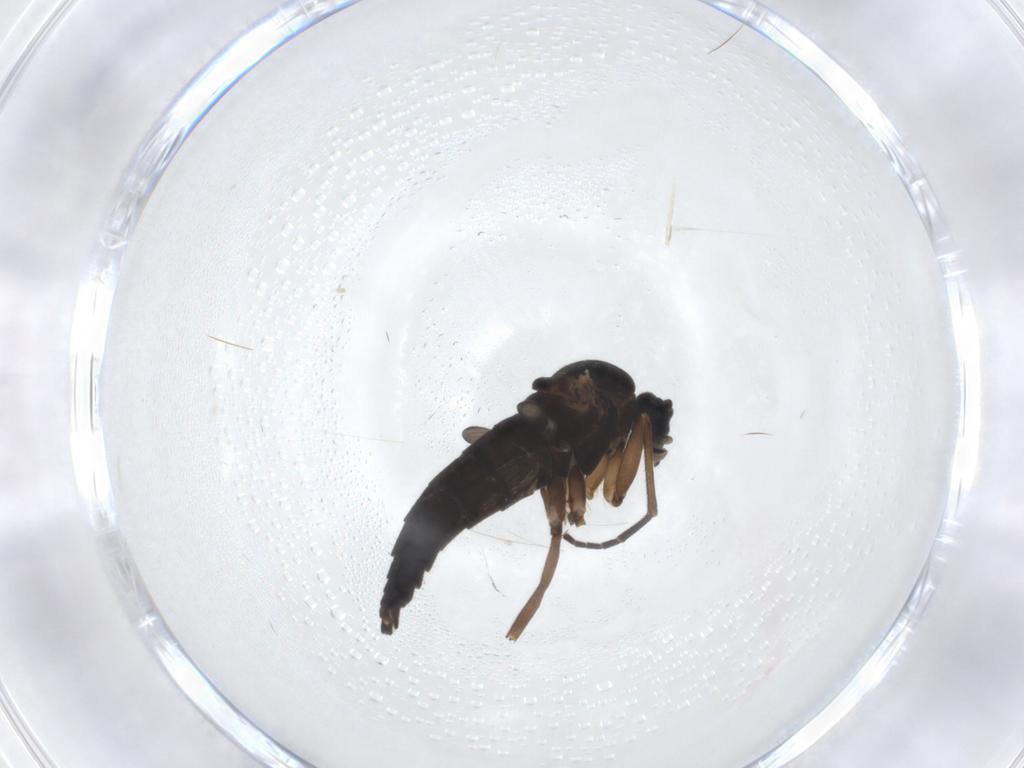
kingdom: Animalia
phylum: Arthropoda
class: Insecta
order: Diptera
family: Sciaridae
